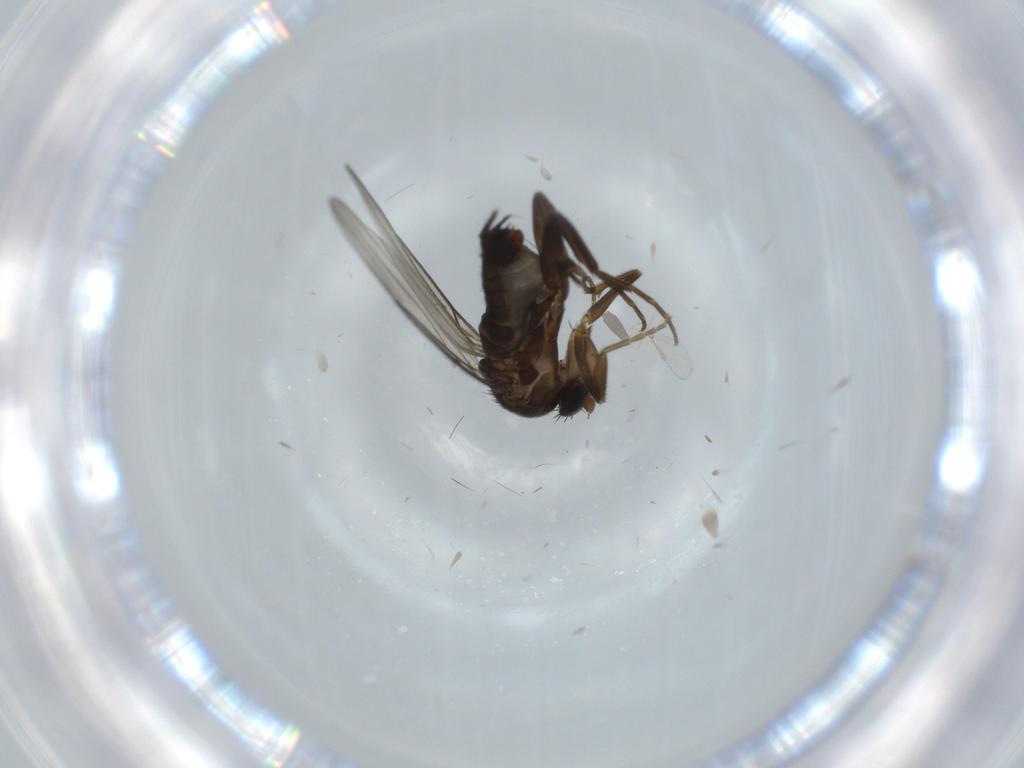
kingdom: Animalia
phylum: Arthropoda
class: Insecta
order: Diptera
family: Chironomidae
